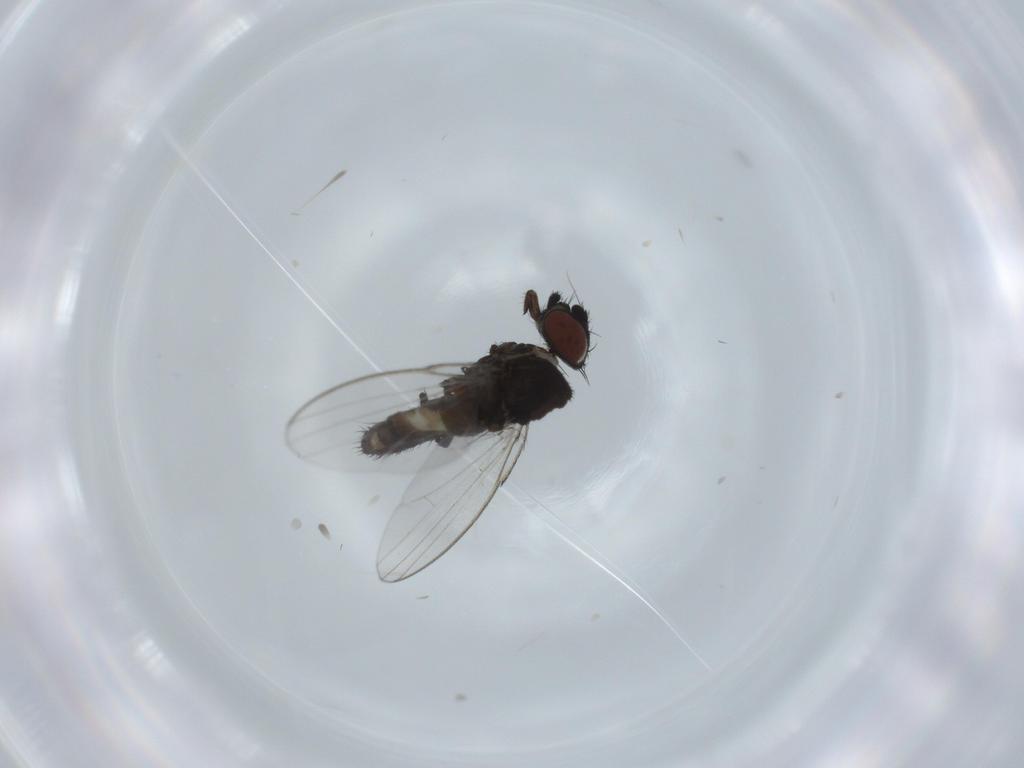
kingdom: Animalia
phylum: Arthropoda
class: Insecta
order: Diptera
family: Milichiidae
